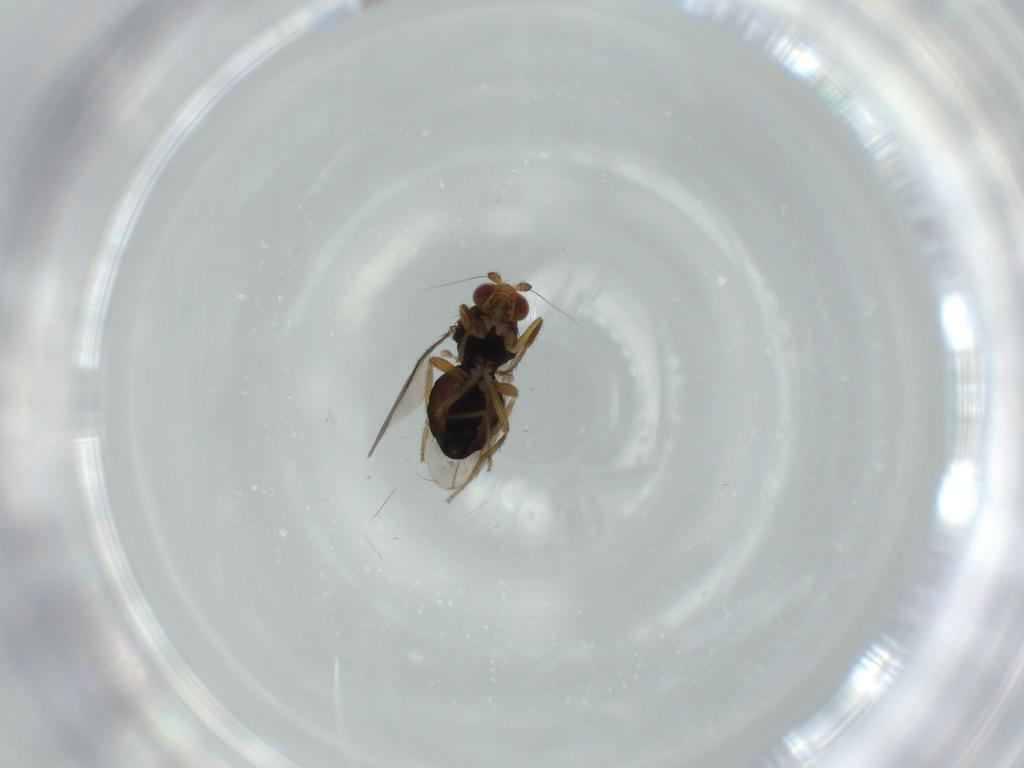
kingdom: Animalia
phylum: Arthropoda
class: Insecta
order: Diptera
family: Sphaeroceridae
